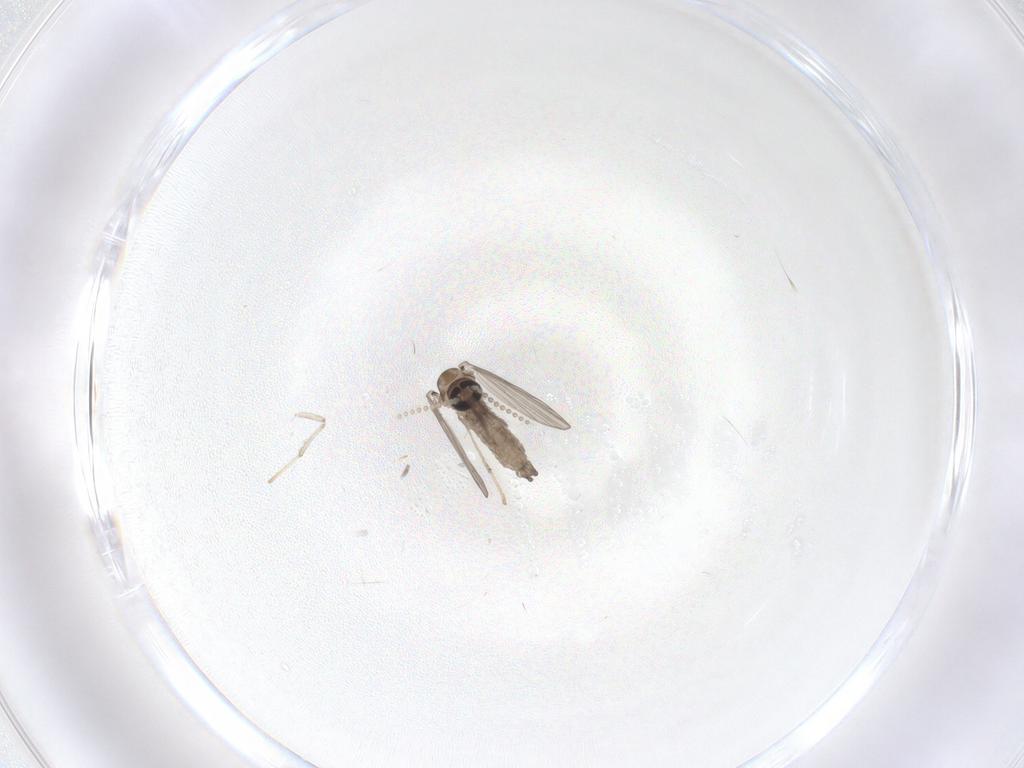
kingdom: Animalia
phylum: Arthropoda
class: Insecta
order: Diptera
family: Psychodidae
